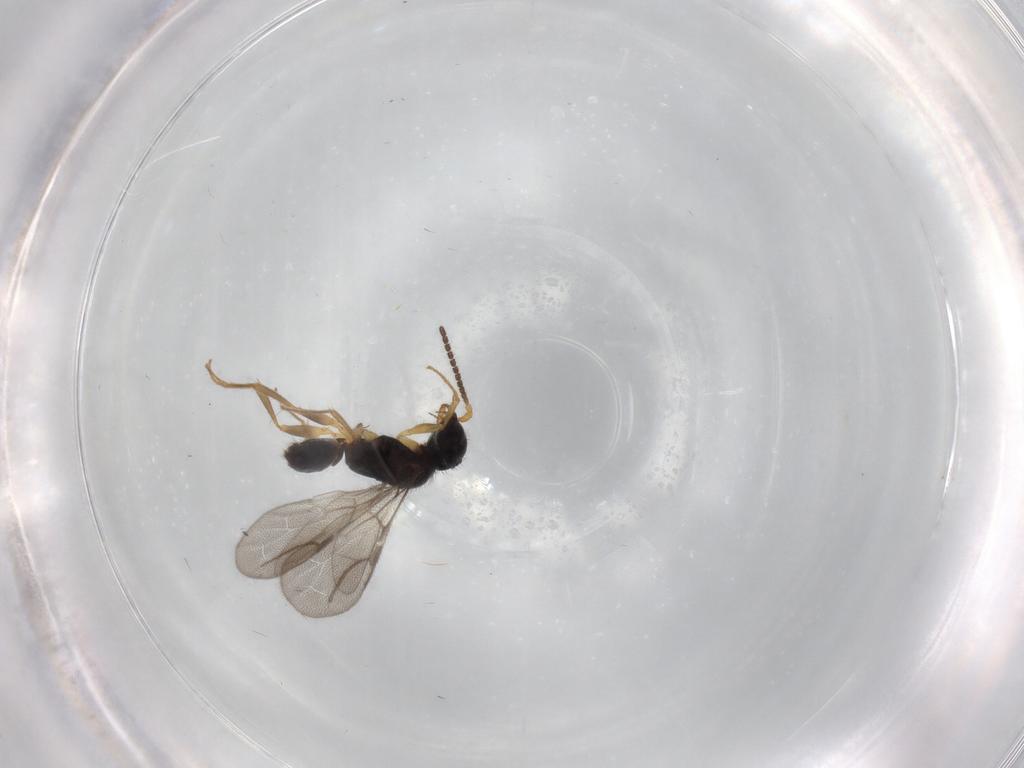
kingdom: Animalia
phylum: Arthropoda
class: Insecta
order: Hymenoptera
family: Bethylidae
